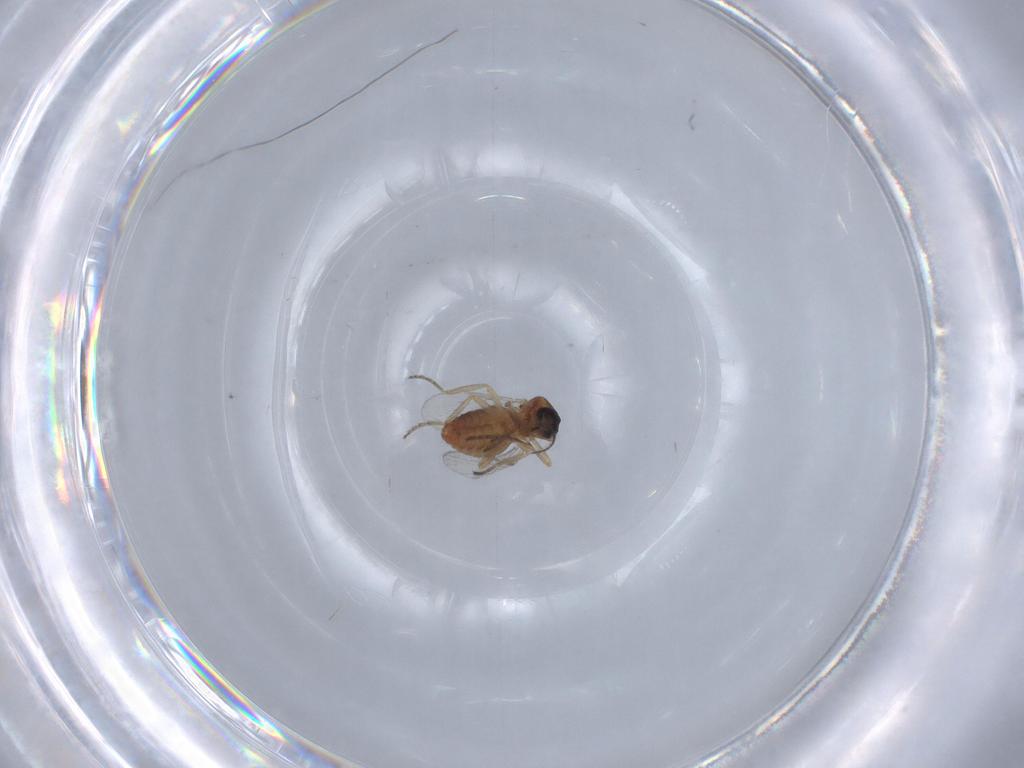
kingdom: Animalia
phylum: Arthropoda
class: Insecta
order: Diptera
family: Ceratopogonidae
